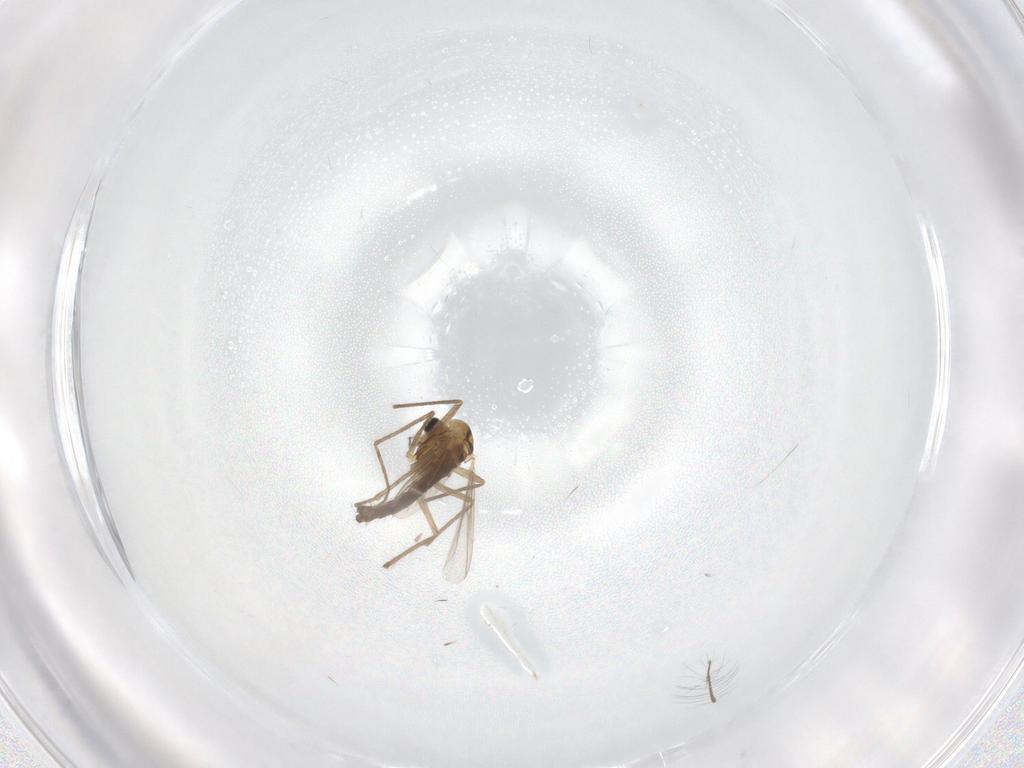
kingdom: Animalia
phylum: Arthropoda
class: Insecta
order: Diptera
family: Chironomidae
